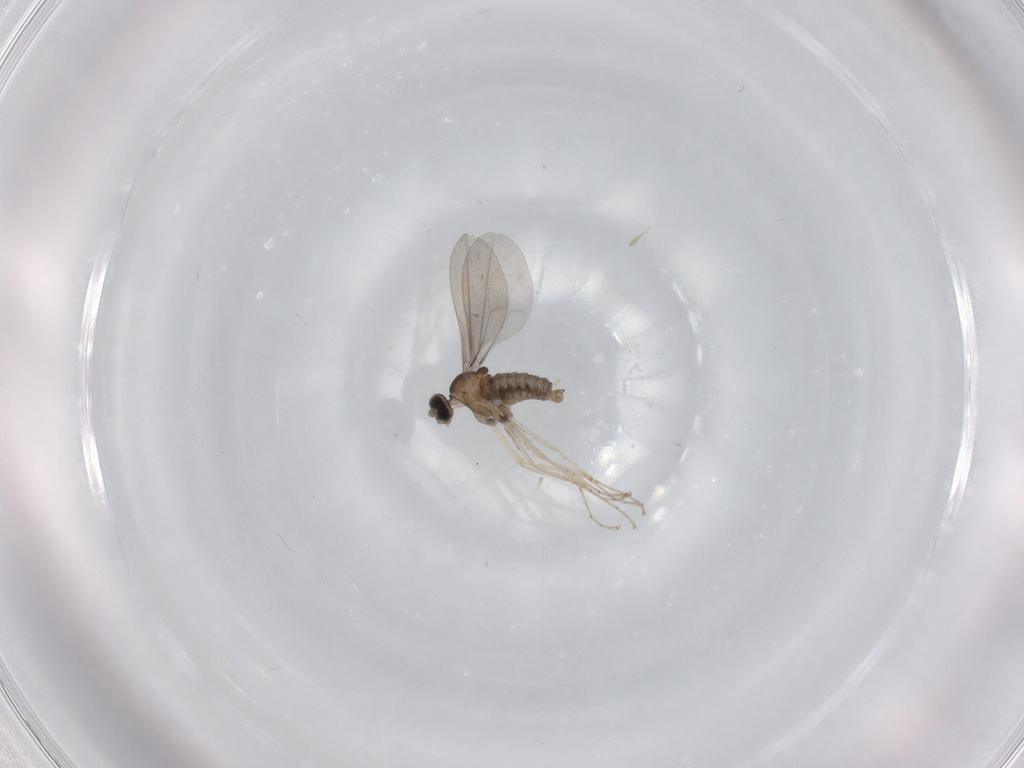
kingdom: Animalia
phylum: Arthropoda
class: Insecta
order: Diptera
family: Cecidomyiidae
